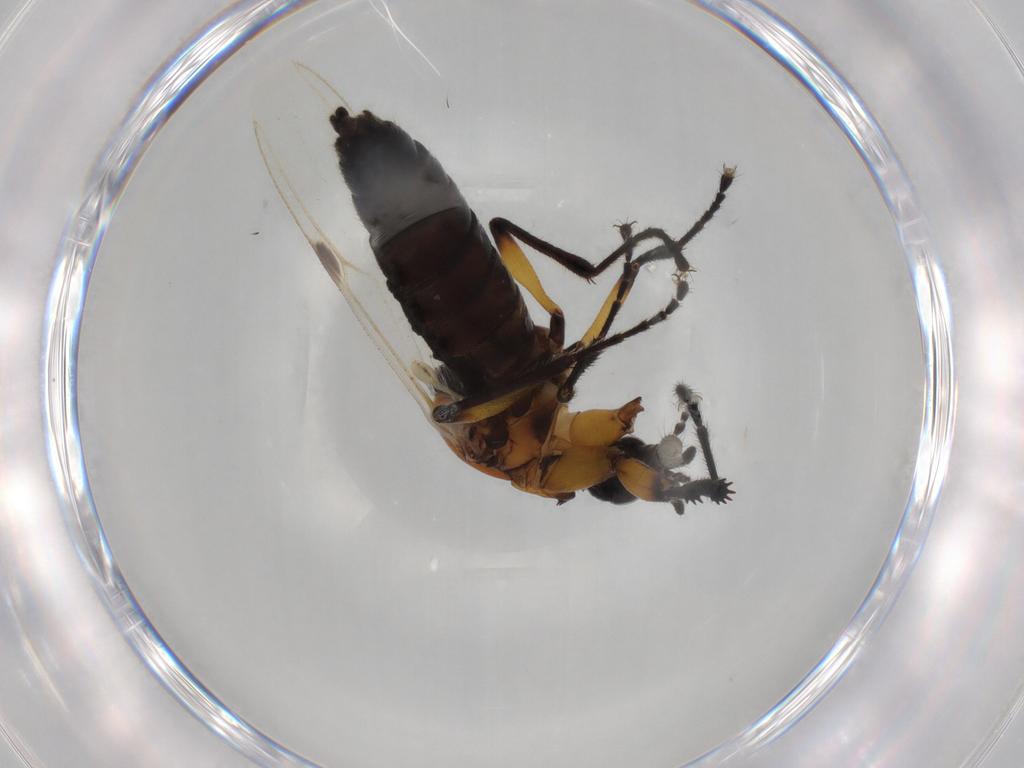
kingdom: Animalia
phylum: Arthropoda
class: Insecta
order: Diptera
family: Bibionidae
